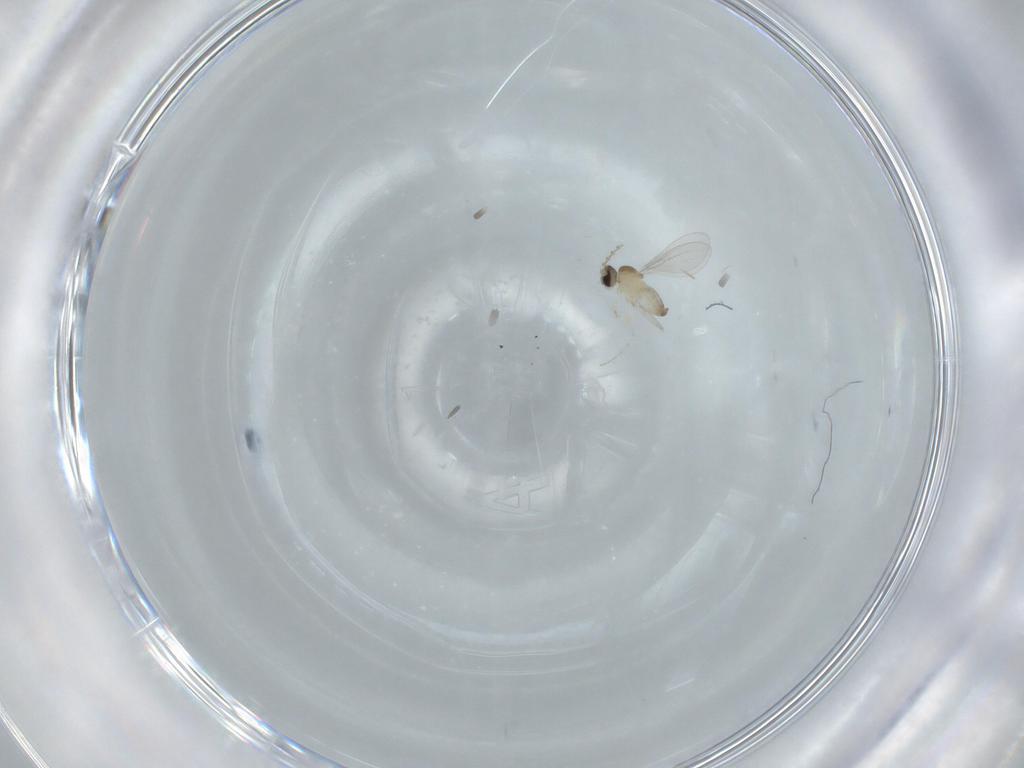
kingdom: Animalia
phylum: Arthropoda
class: Insecta
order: Diptera
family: Cecidomyiidae
